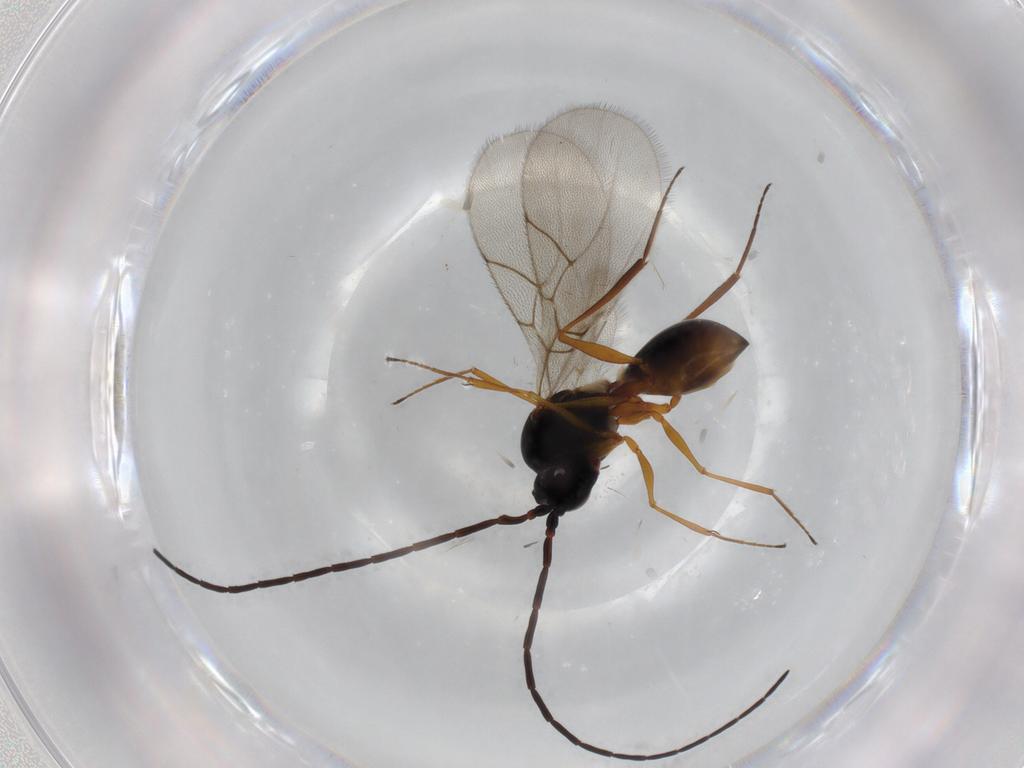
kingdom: Animalia
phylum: Arthropoda
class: Insecta
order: Hymenoptera
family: Figitidae
